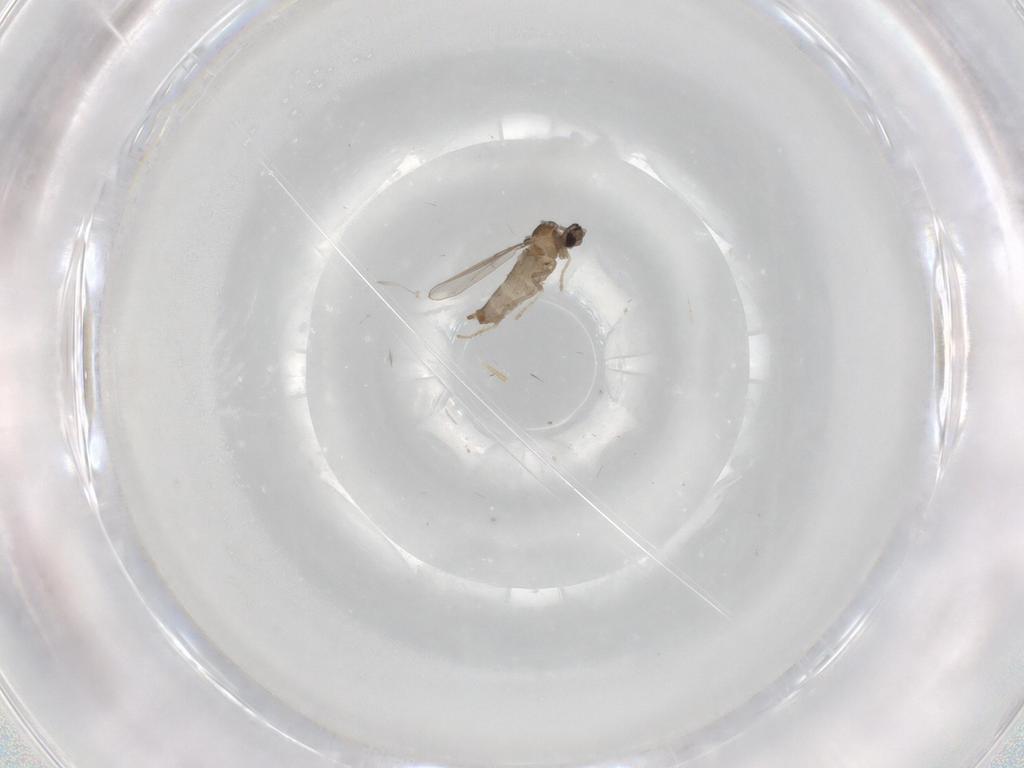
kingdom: Animalia
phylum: Arthropoda
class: Insecta
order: Diptera
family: Cecidomyiidae
